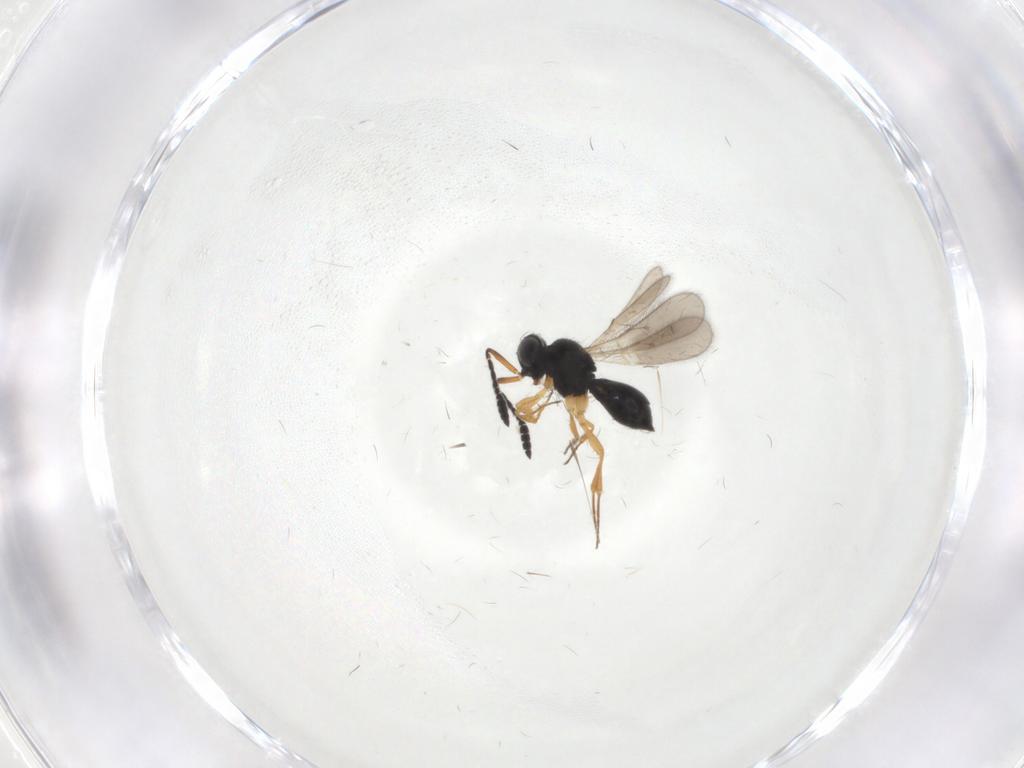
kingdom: Animalia
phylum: Arthropoda
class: Insecta
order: Hymenoptera
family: Scelionidae
